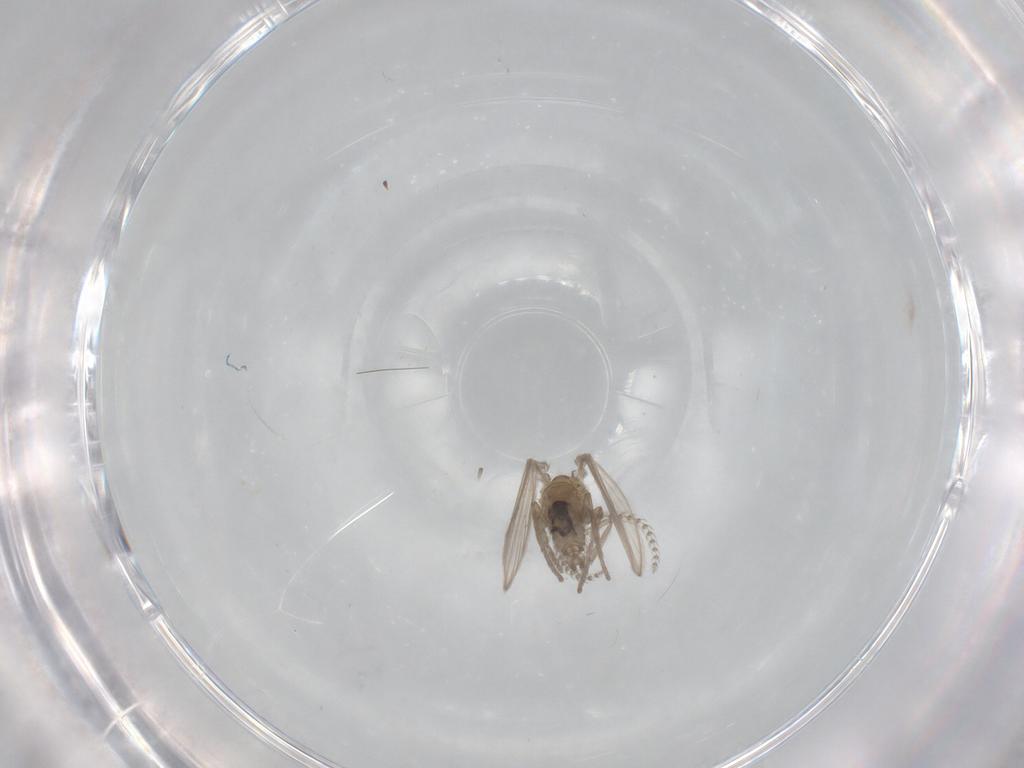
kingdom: Animalia
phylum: Arthropoda
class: Insecta
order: Diptera
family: Psychodidae
